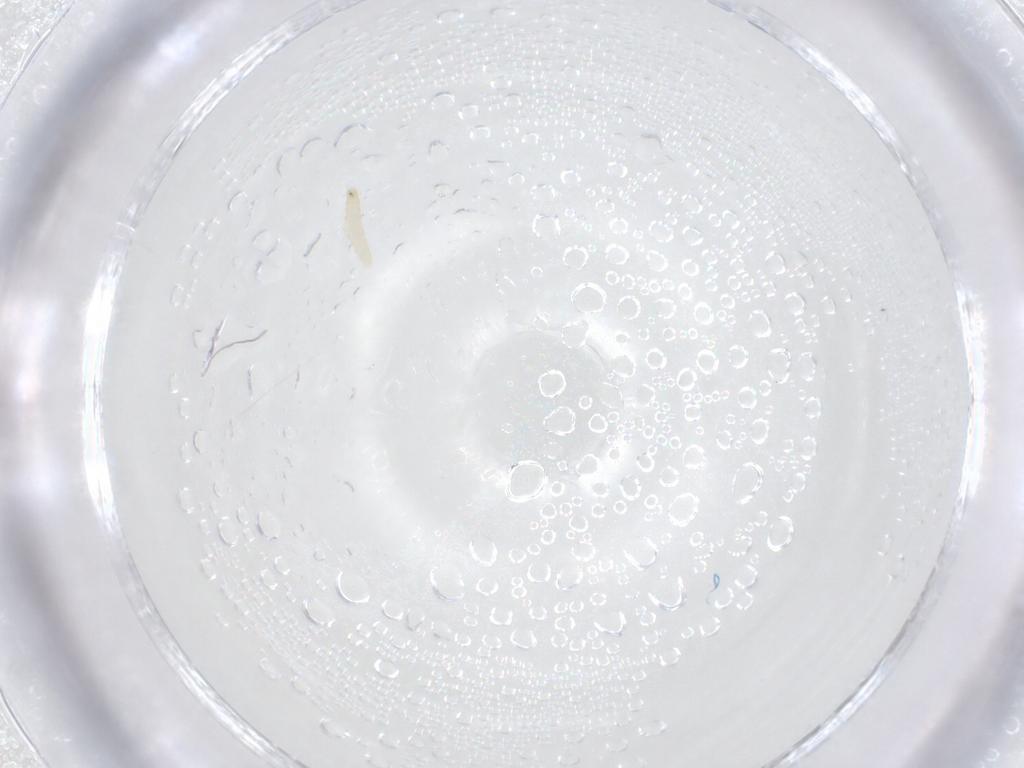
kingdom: Animalia
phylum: Arthropoda
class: Insecta
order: Diptera
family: Tachinidae
